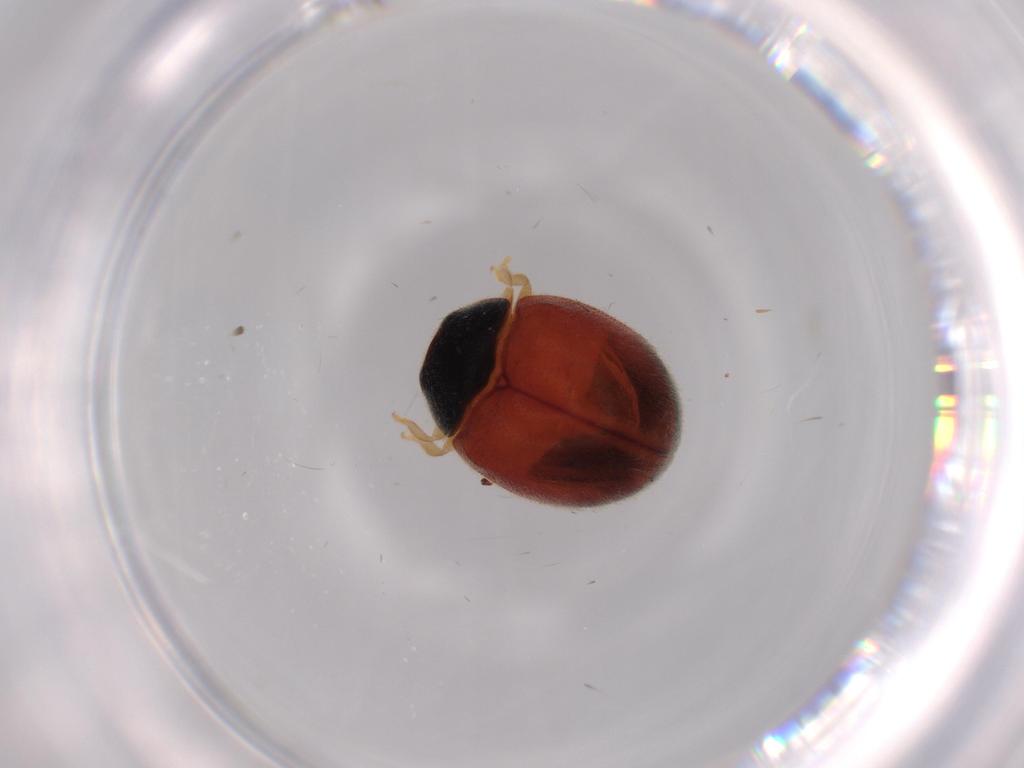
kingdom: Animalia
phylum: Arthropoda
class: Insecta
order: Coleoptera
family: Coccinellidae
